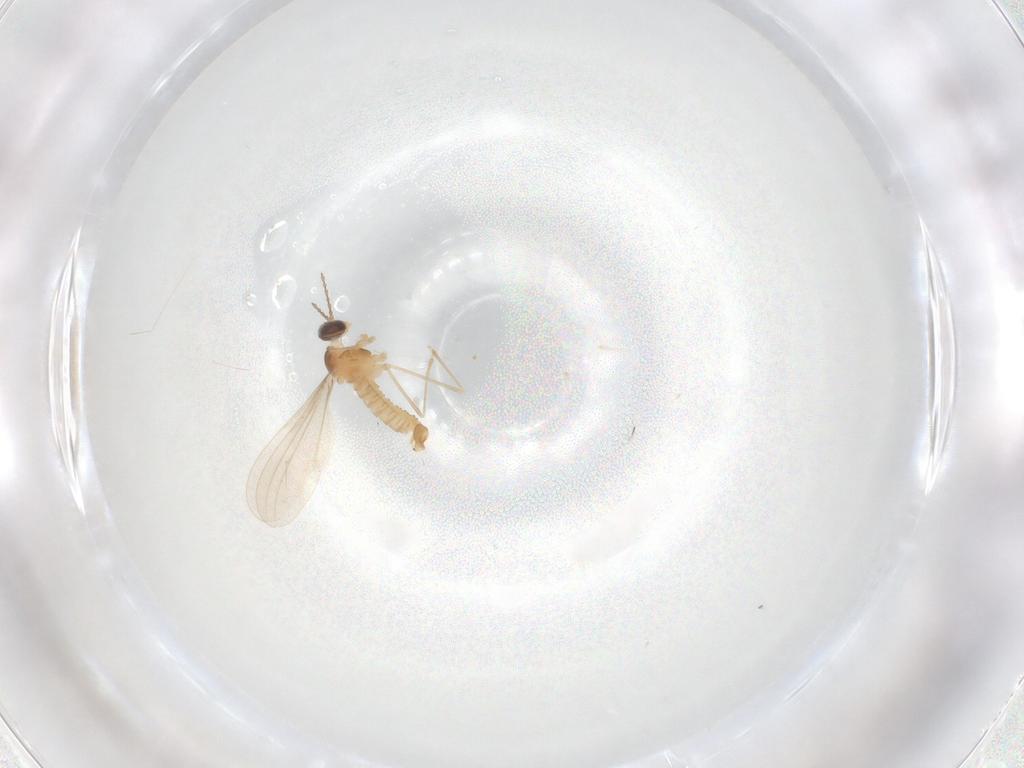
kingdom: Animalia
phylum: Arthropoda
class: Insecta
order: Diptera
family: Cecidomyiidae
